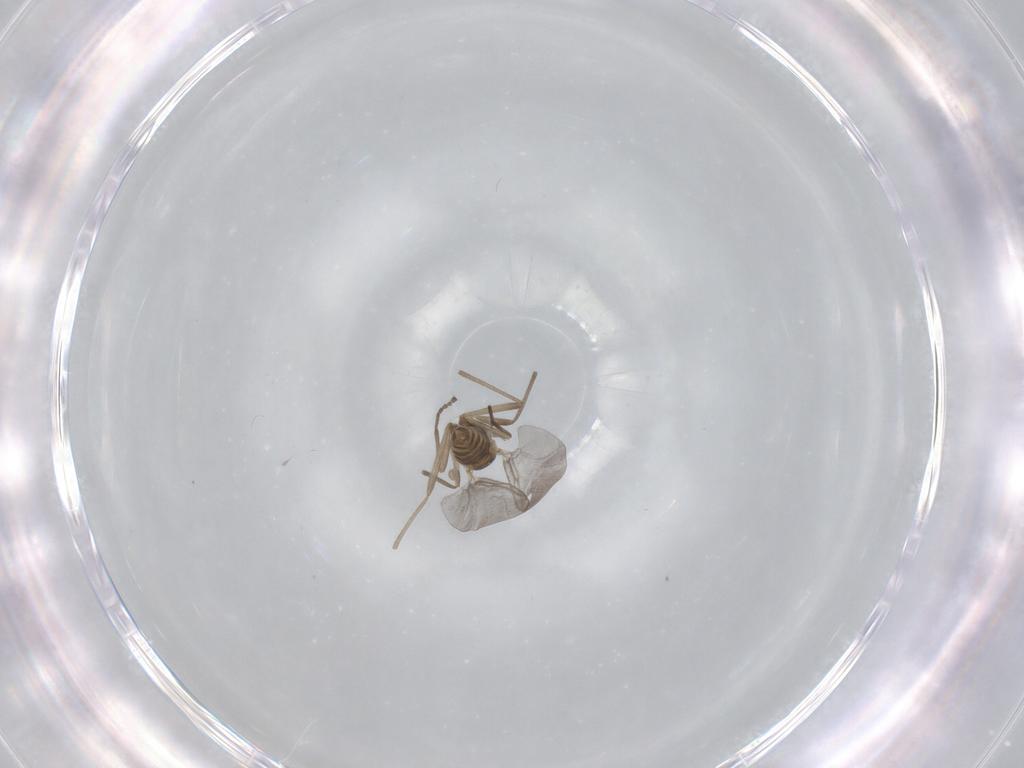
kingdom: Animalia
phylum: Arthropoda
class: Insecta
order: Diptera
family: Cecidomyiidae
